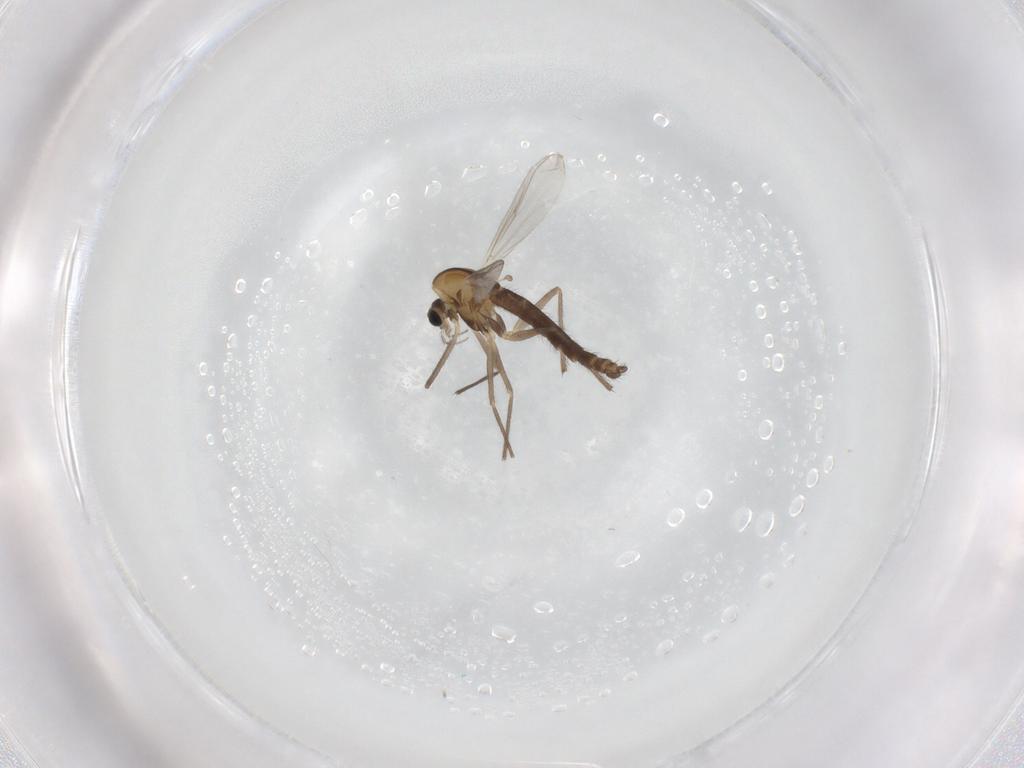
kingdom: Animalia
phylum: Arthropoda
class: Insecta
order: Diptera
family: Chironomidae
